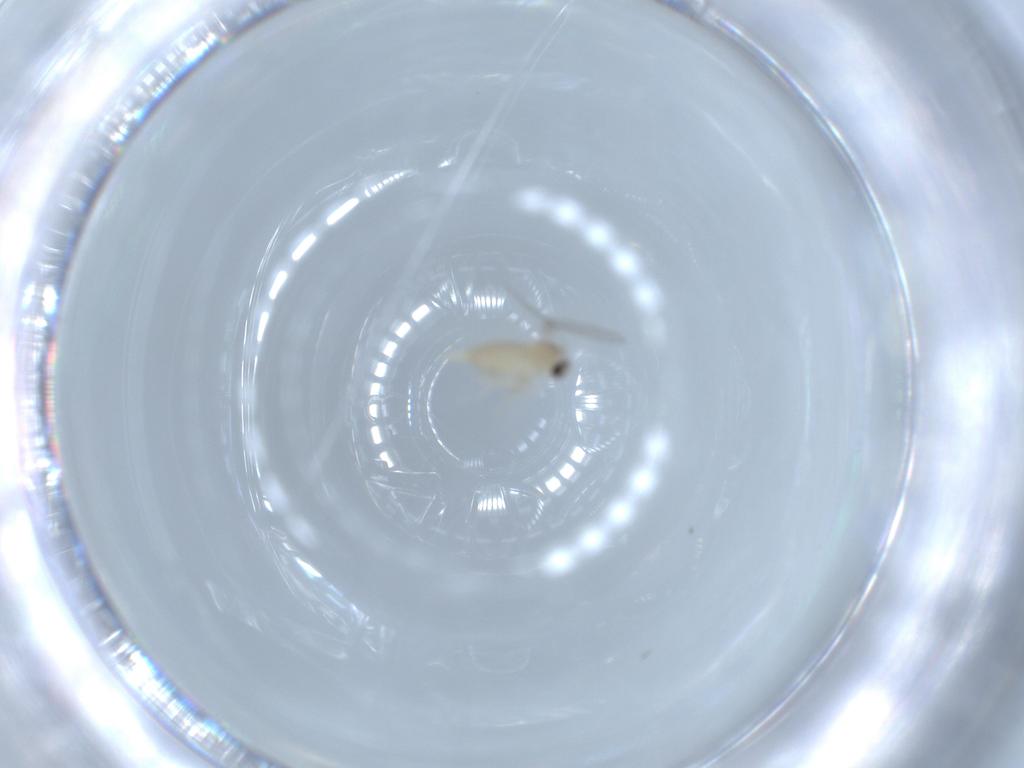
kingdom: Animalia
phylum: Arthropoda
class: Insecta
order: Diptera
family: Cecidomyiidae
